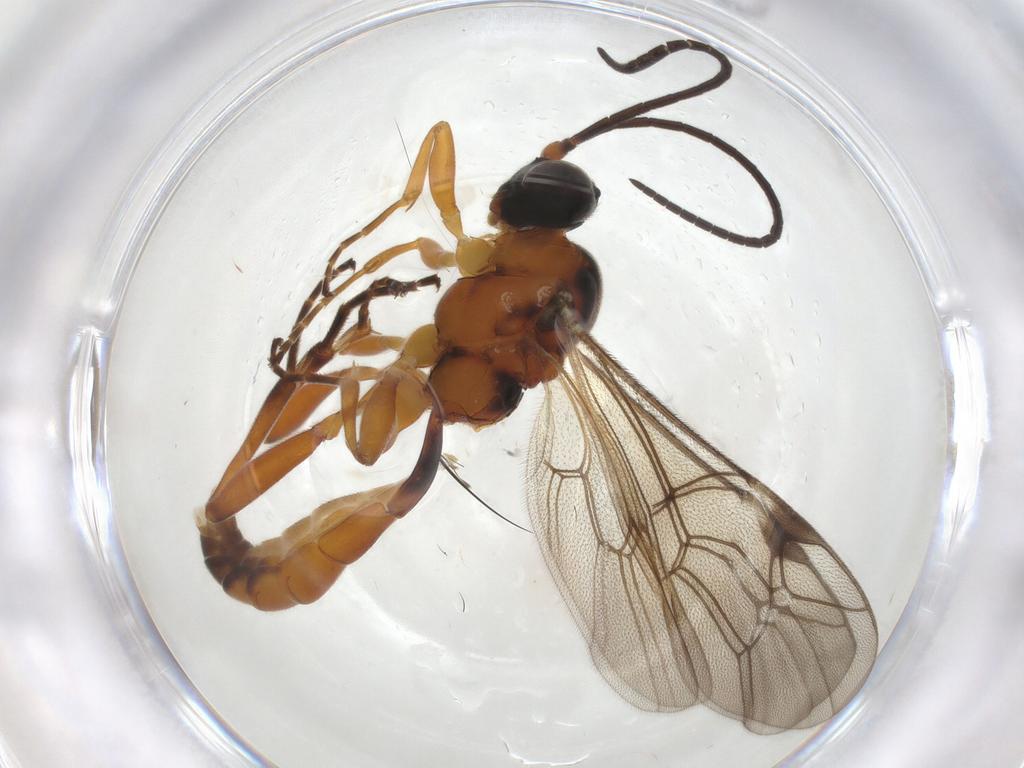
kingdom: Animalia
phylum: Arthropoda
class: Insecta
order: Hymenoptera
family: Ichneumonidae
